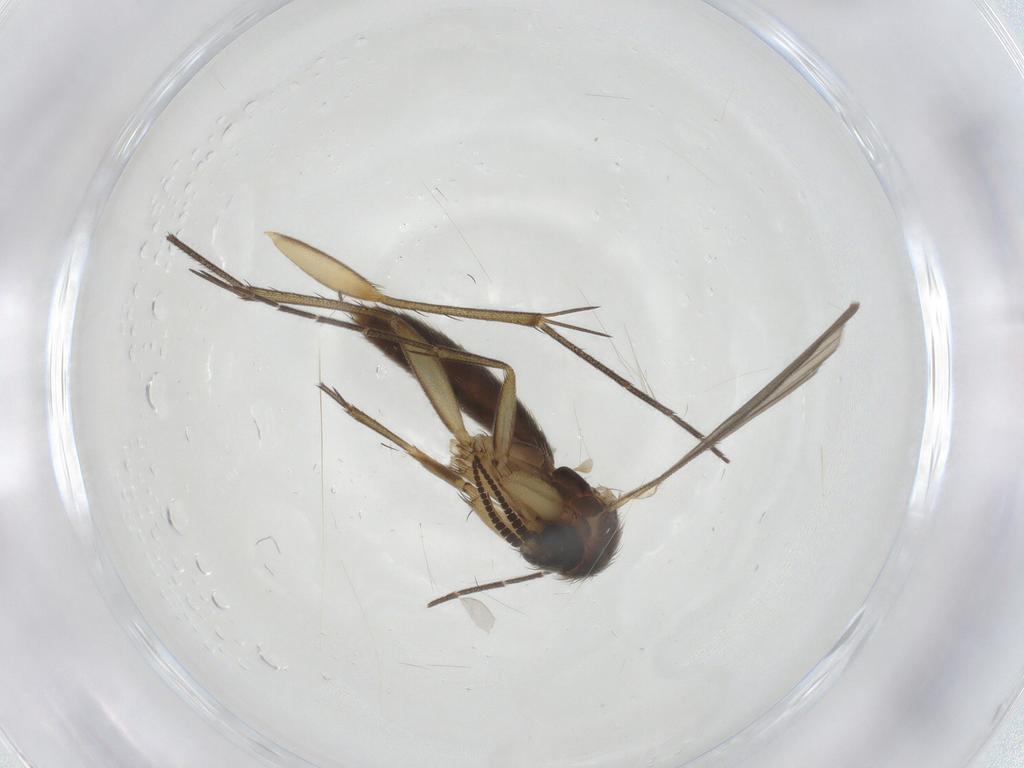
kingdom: Animalia
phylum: Arthropoda
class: Insecta
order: Diptera
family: Mycetophilidae
